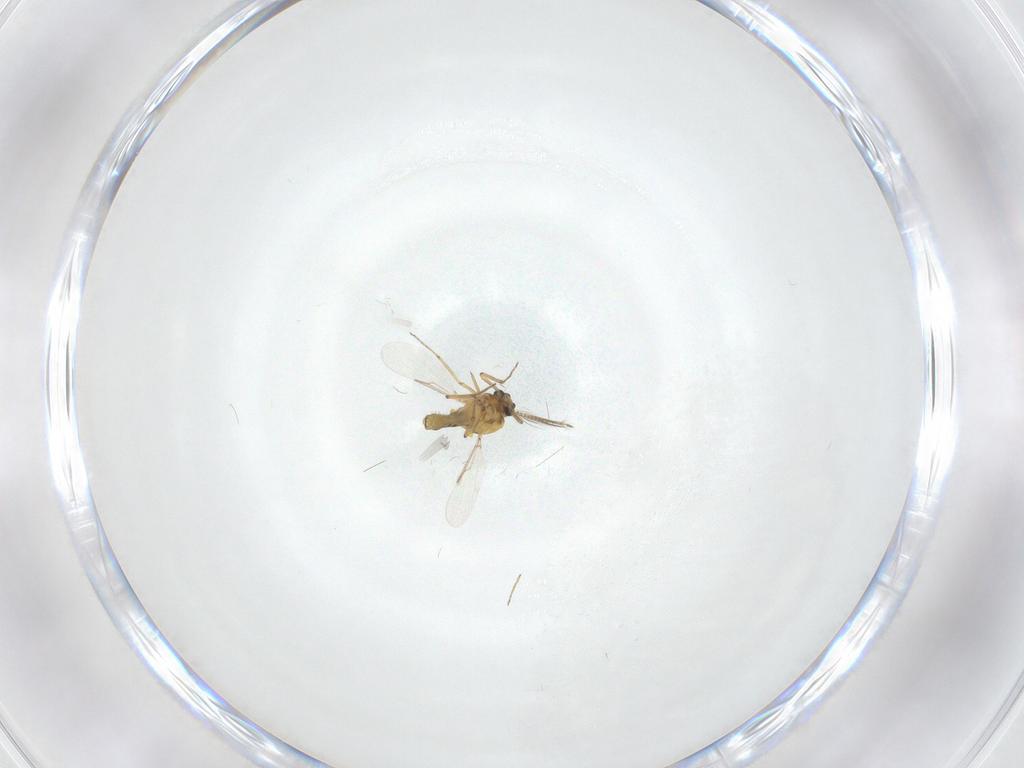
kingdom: Animalia
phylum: Arthropoda
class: Insecta
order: Diptera
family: Ceratopogonidae
